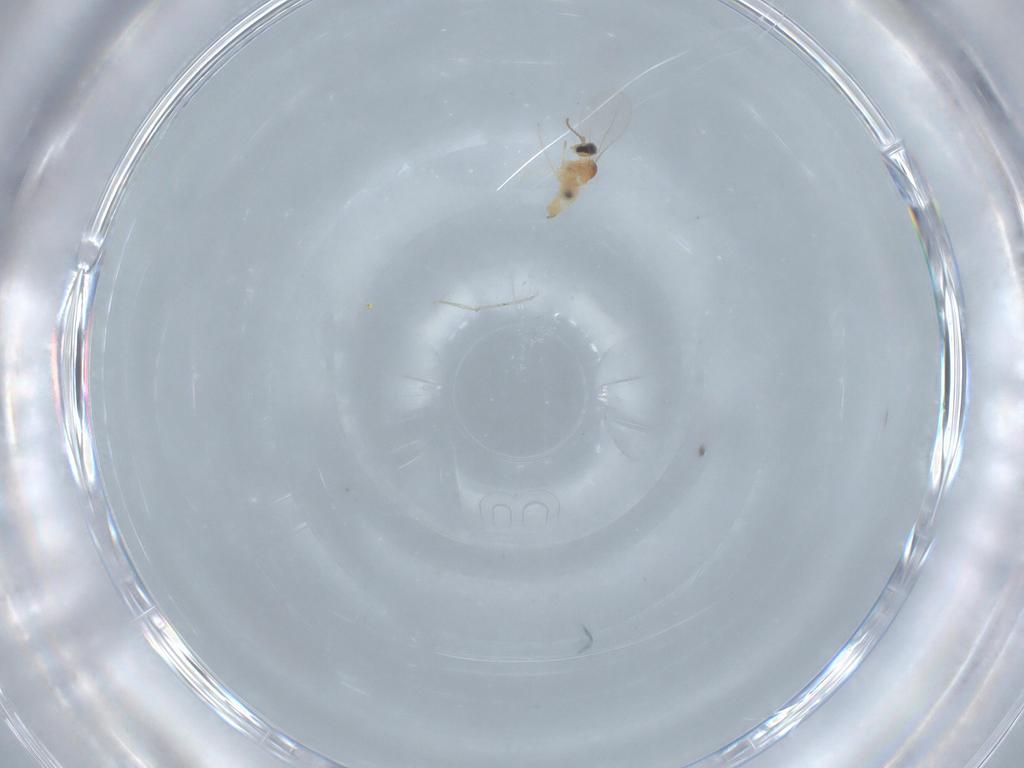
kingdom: Animalia
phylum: Arthropoda
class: Insecta
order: Diptera
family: Cecidomyiidae
